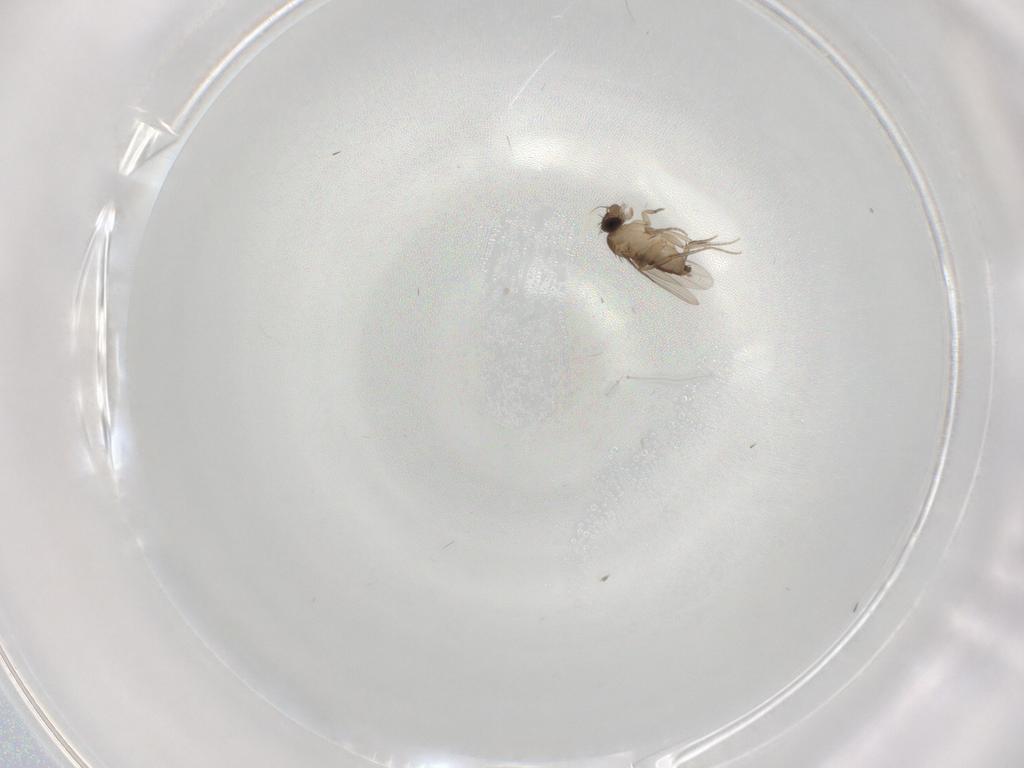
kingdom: Animalia
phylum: Arthropoda
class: Insecta
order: Diptera
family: Phoridae
